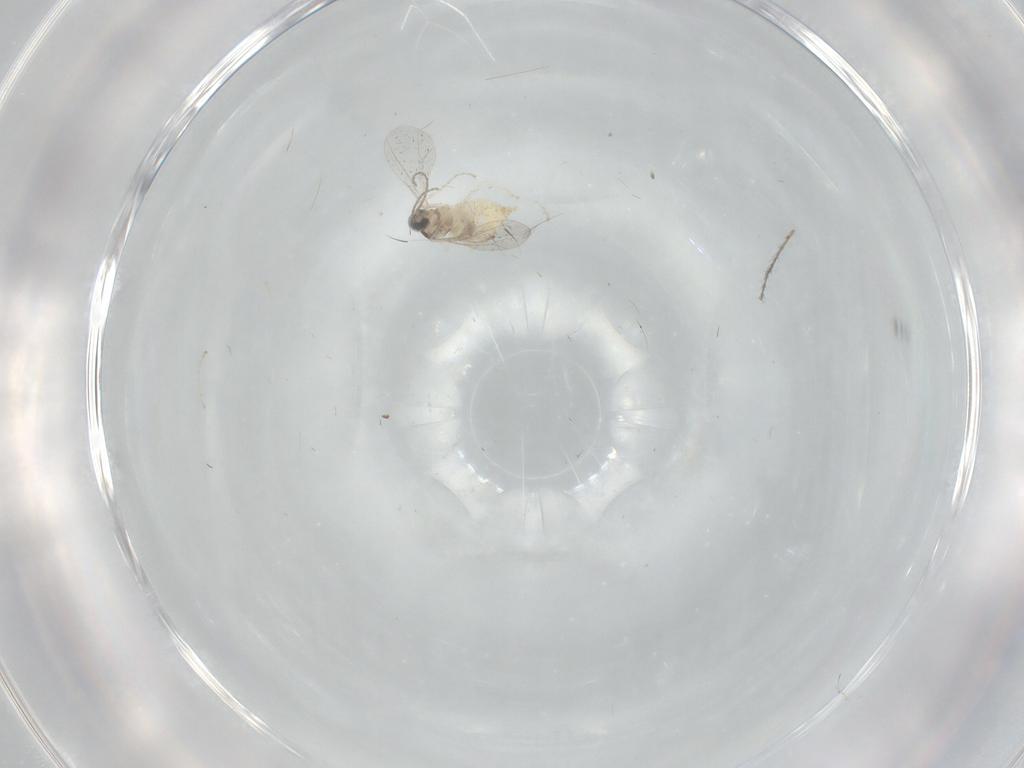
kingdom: Animalia
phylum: Arthropoda
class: Insecta
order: Diptera
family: Cecidomyiidae
